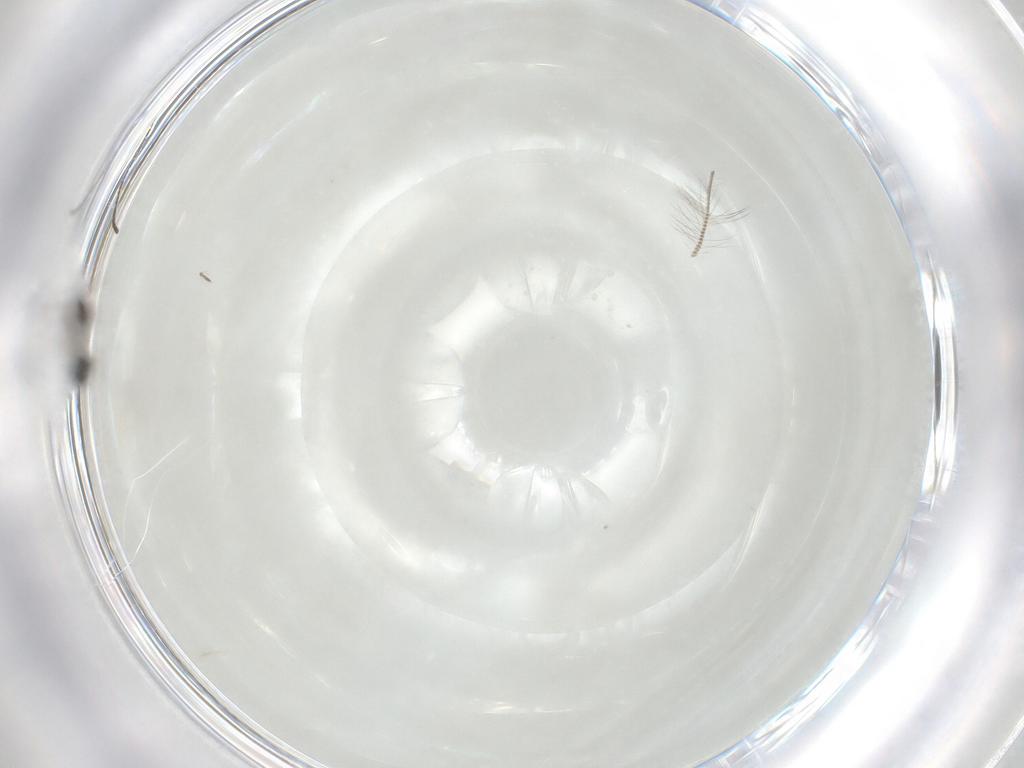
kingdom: Animalia
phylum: Arthropoda
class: Insecta
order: Hymenoptera
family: Scelionidae
